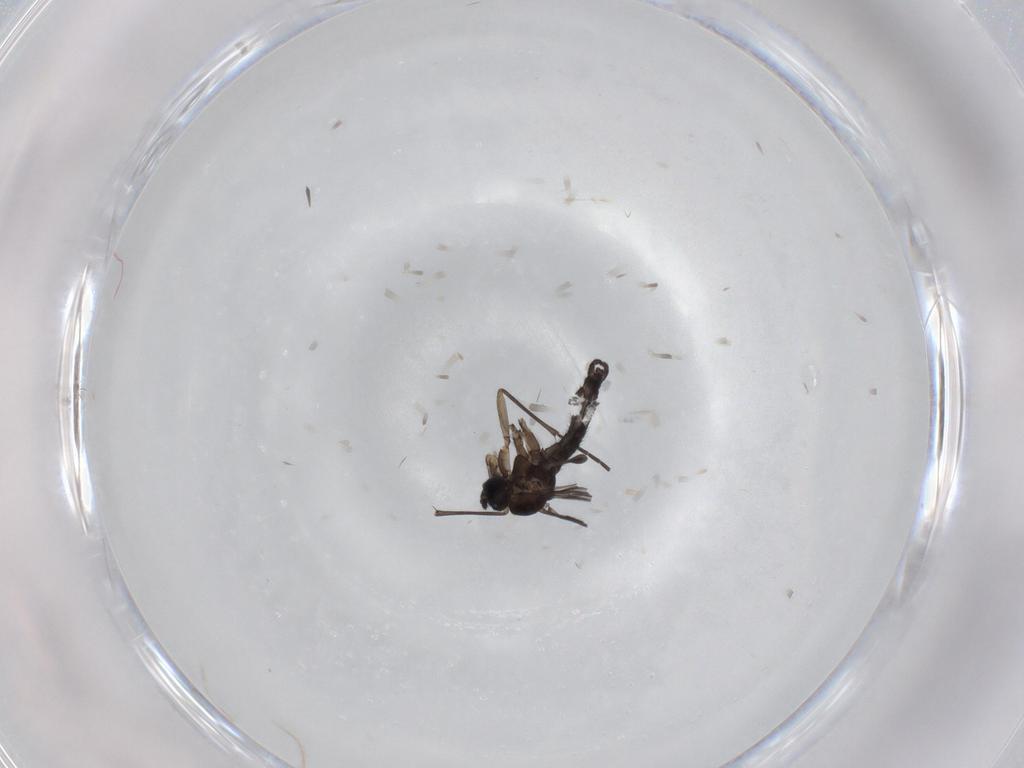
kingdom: Animalia
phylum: Arthropoda
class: Insecta
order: Diptera
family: Sciaridae
